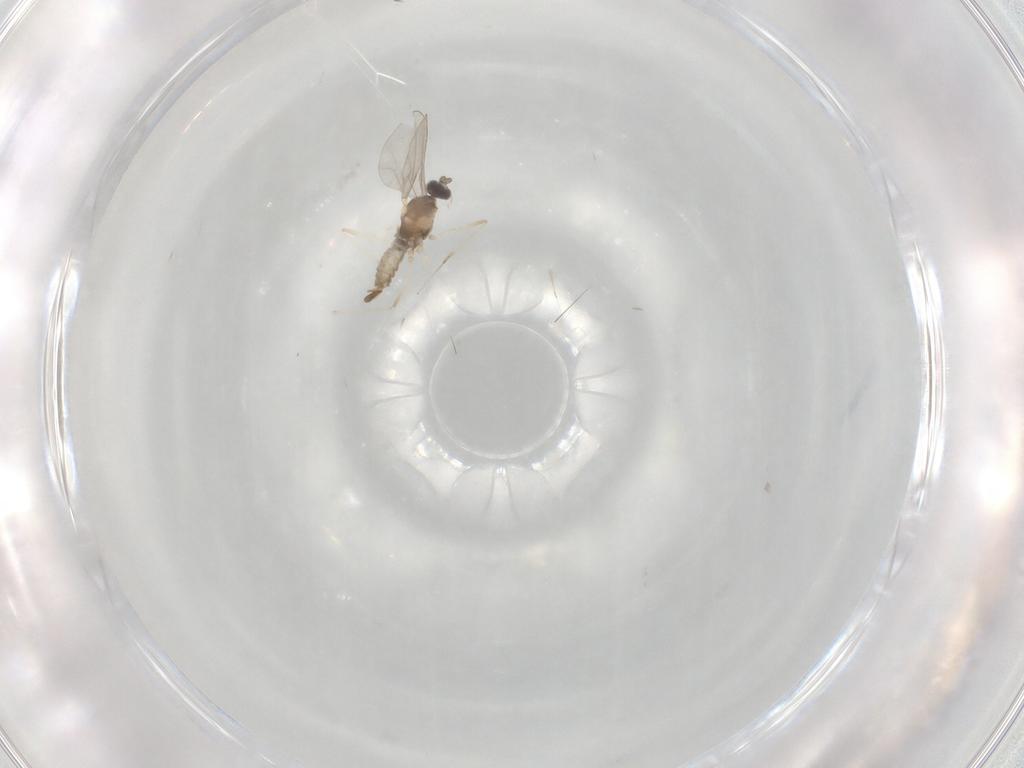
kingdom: Animalia
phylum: Arthropoda
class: Insecta
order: Diptera
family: Cecidomyiidae
